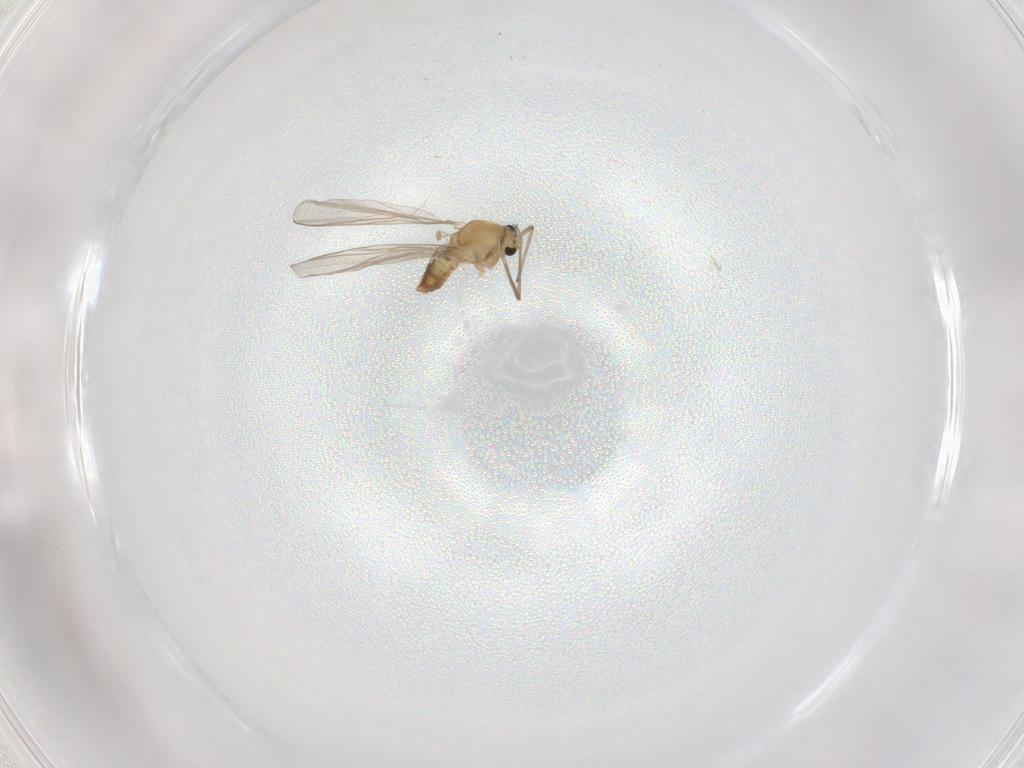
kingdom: Animalia
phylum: Arthropoda
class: Insecta
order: Diptera
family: Chironomidae
